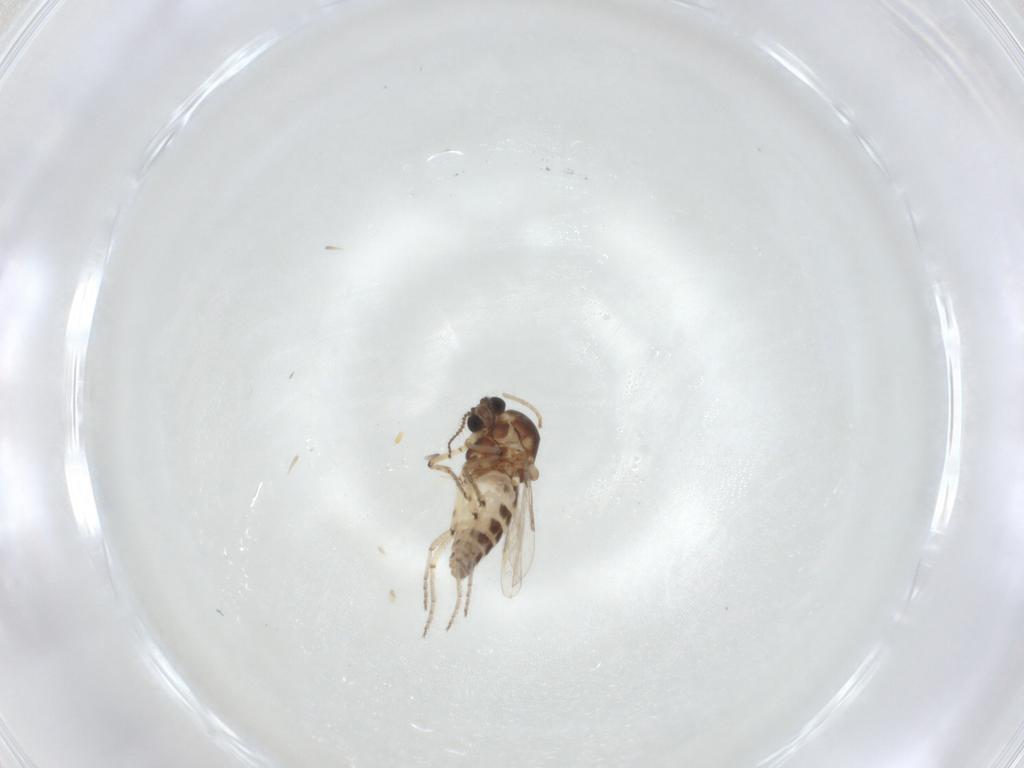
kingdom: Animalia
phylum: Arthropoda
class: Insecta
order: Diptera
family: Ceratopogonidae
